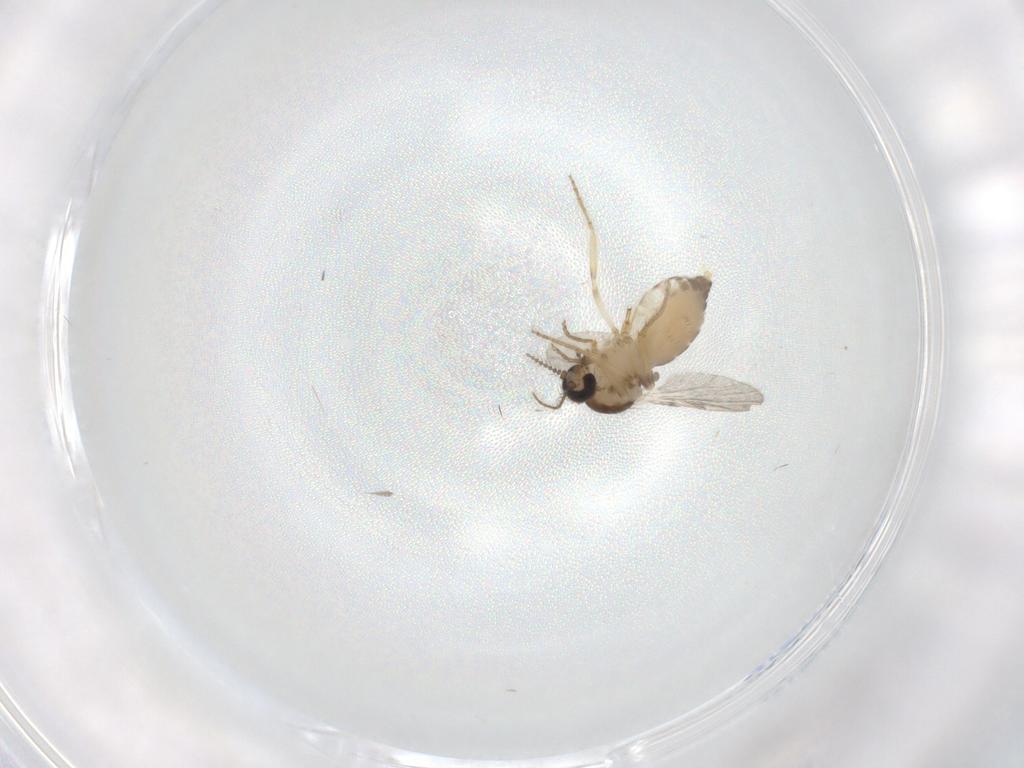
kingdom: Animalia
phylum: Arthropoda
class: Insecta
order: Diptera
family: Ceratopogonidae
